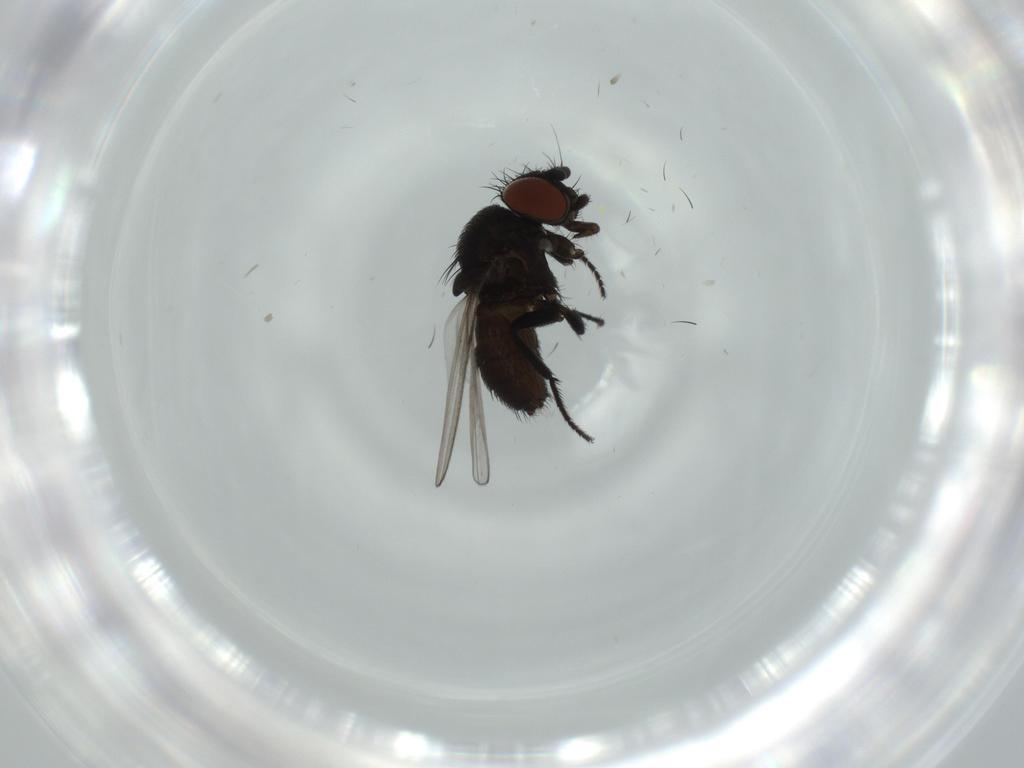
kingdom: Animalia
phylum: Arthropoda
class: Insecta
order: Diptera
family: Milichiidae
